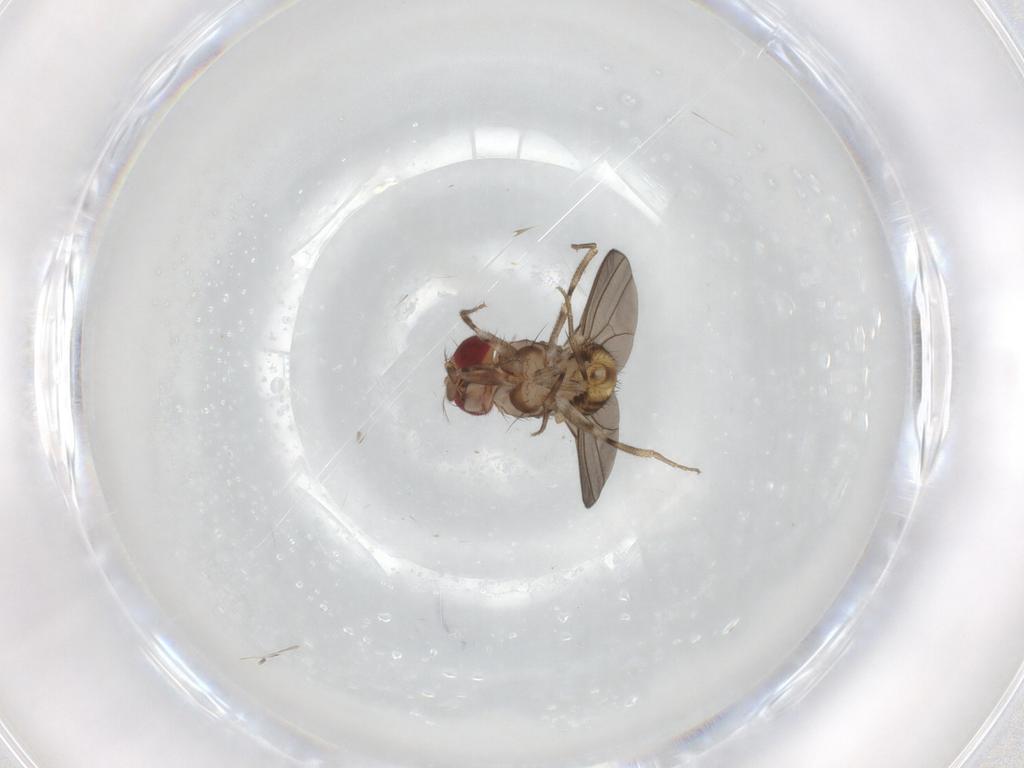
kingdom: Animalia
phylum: Arthropoda
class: Insecta
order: Diptera
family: Drosophilidae
